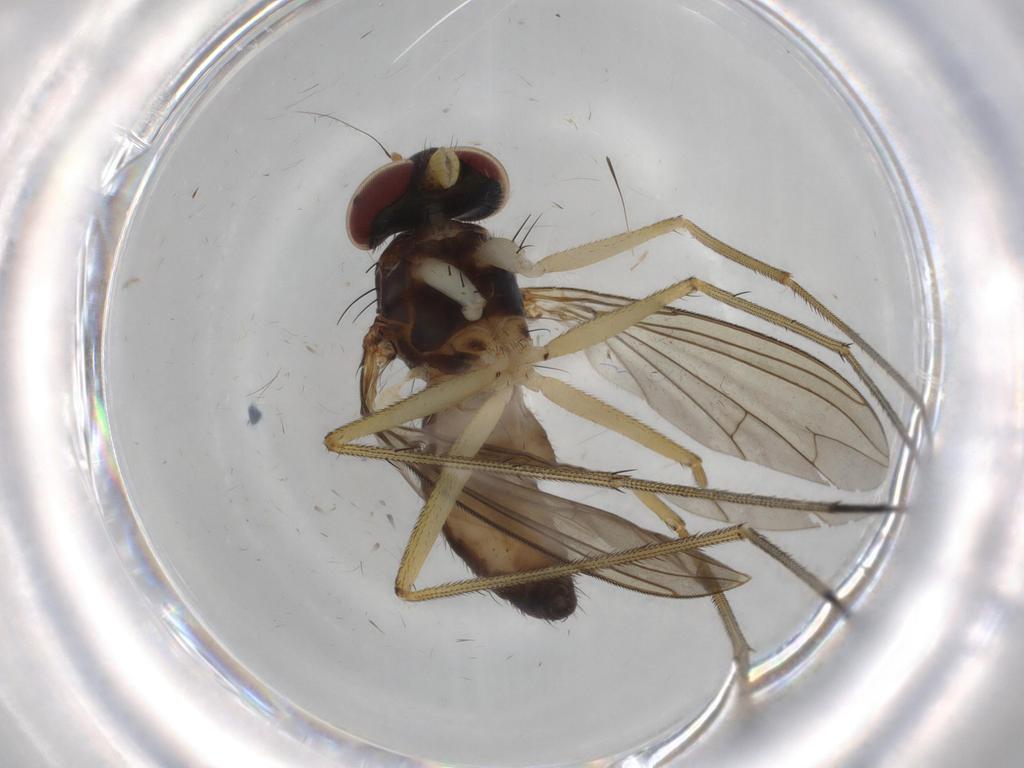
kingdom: Animalia
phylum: Arthropoda
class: Insecta
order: Diptera
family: Dolichopodidae
